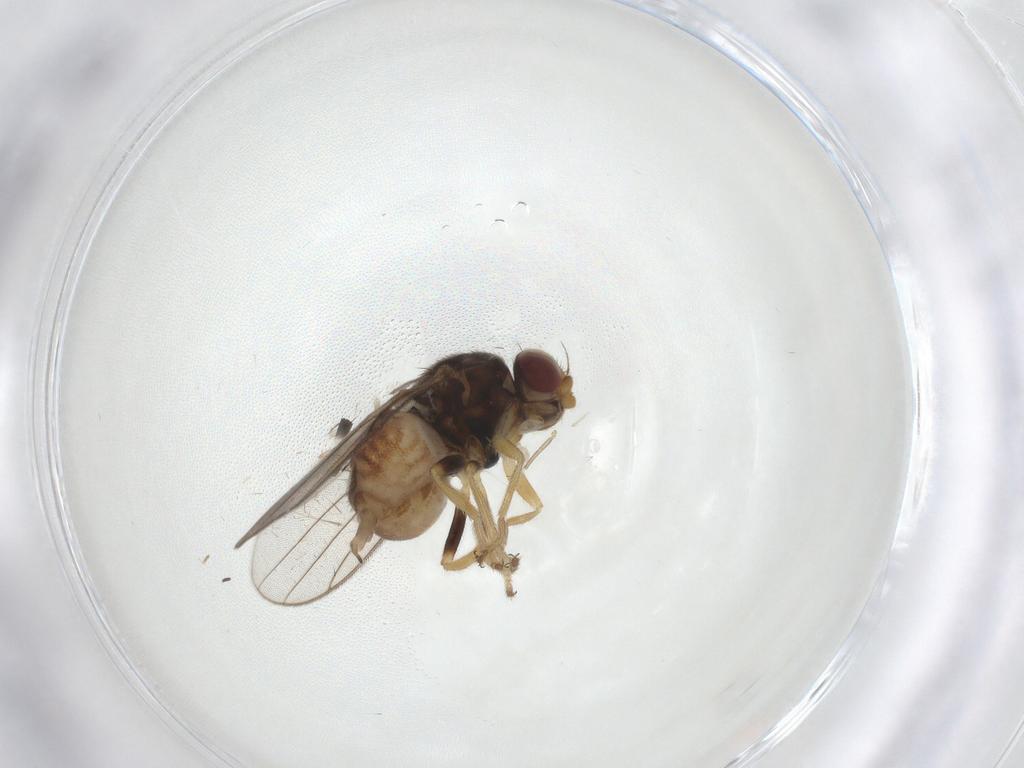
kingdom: Animalia
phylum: Arthropoda
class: Insecta
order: Diptera
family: Chloropidae
